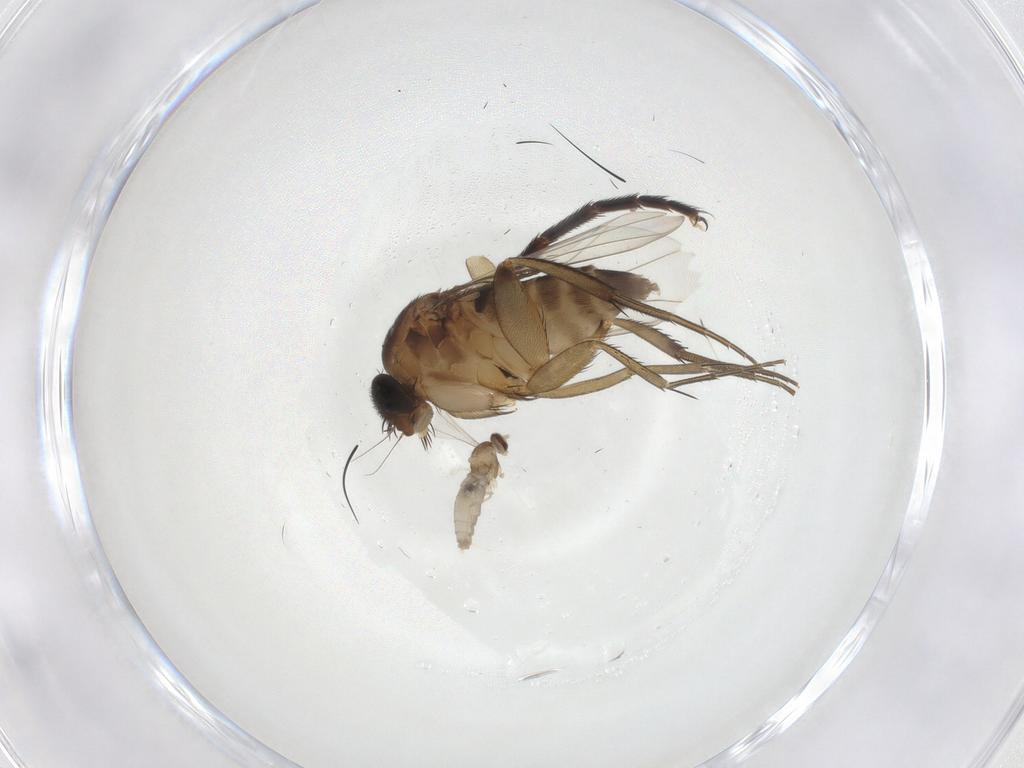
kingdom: Animalia
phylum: Arthropoda
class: Insecta
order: Diptera
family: Phoridae
